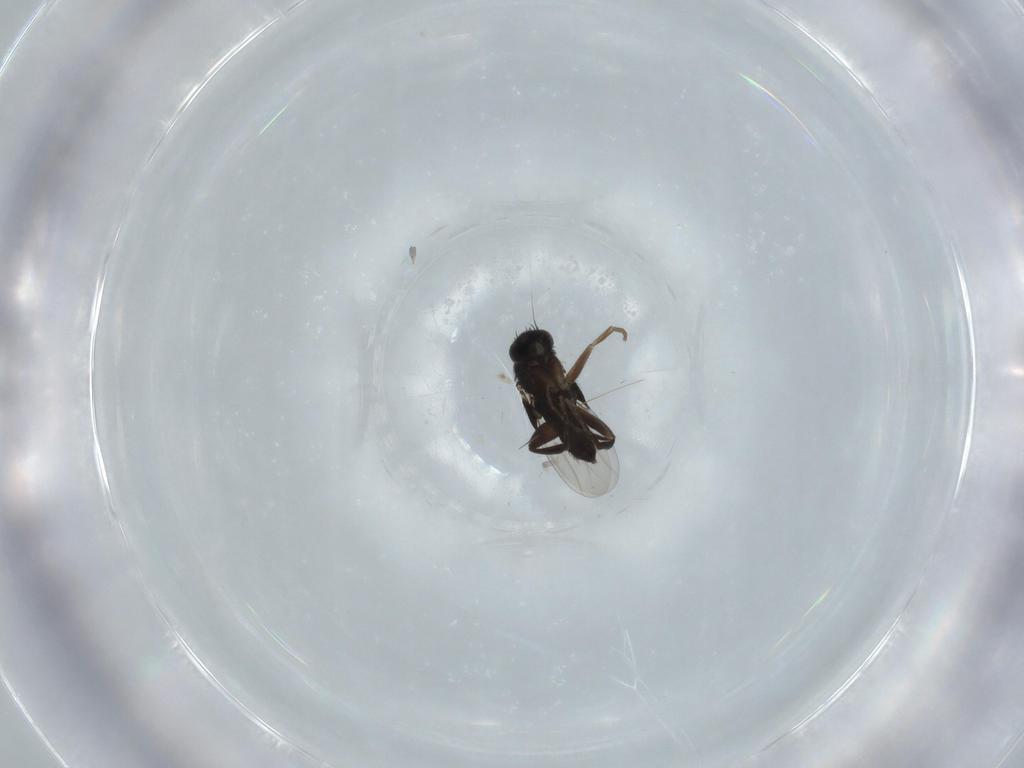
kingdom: Animalia
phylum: Arthropoda
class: Insecta
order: Diptera
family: Phoridae
